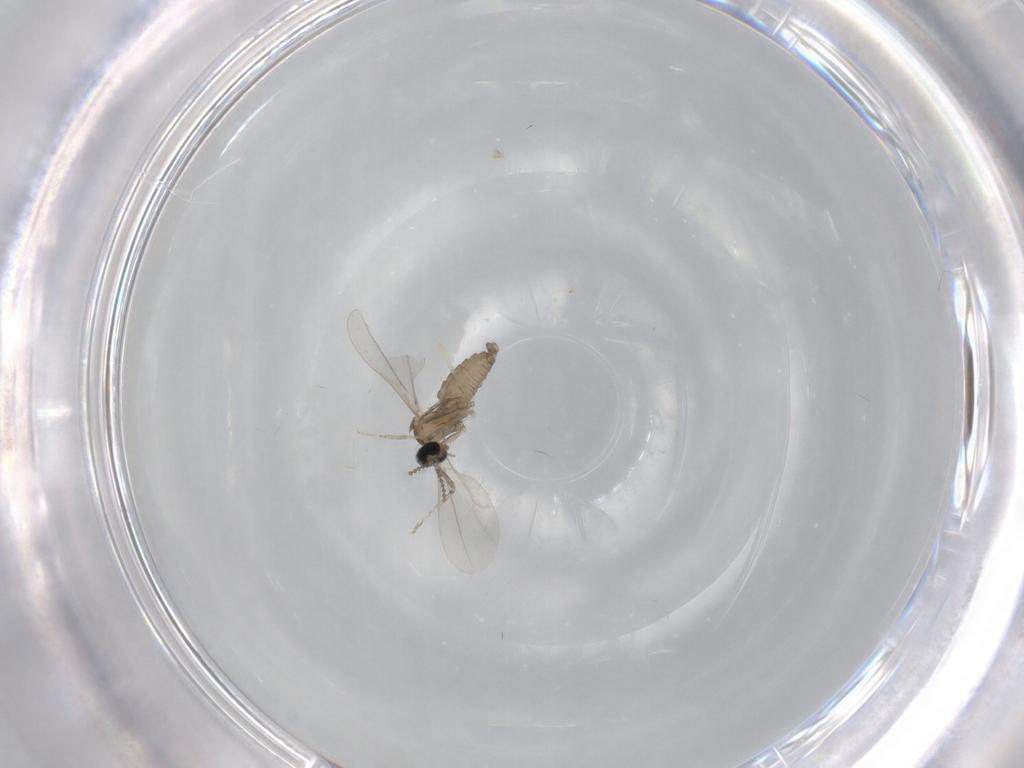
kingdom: Animalia
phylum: Arthropoda
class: Insecta
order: Diptera
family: Cecidomyiidae
